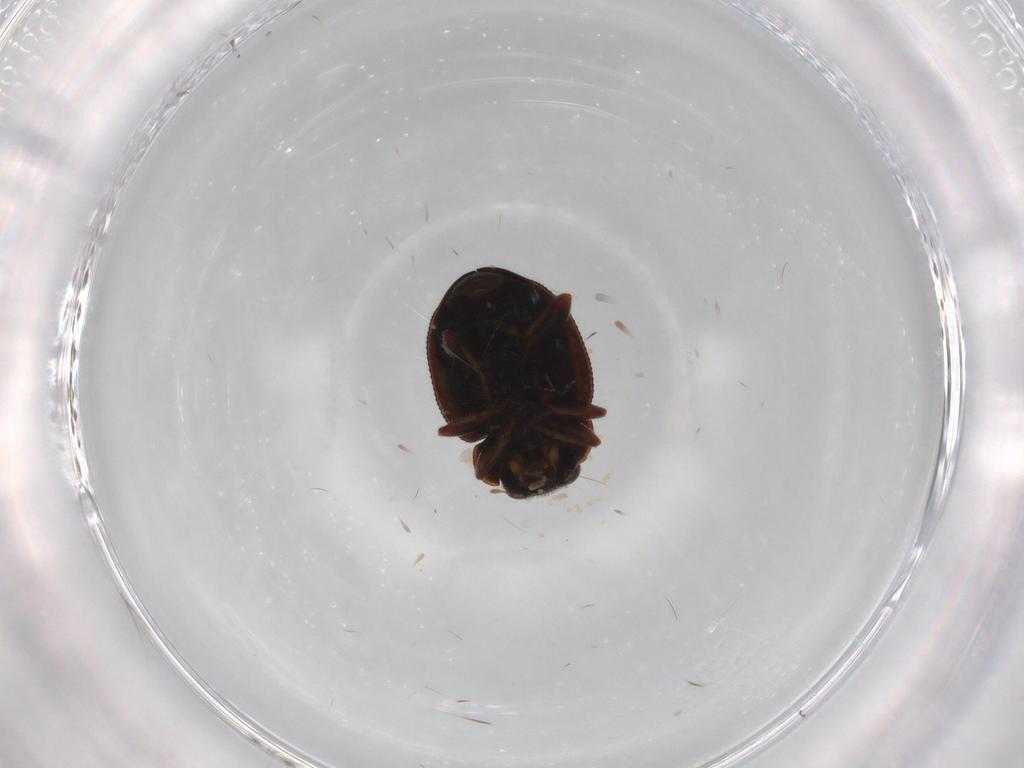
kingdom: Animalia
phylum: Arthropoda
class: Insecta
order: Coleoptera
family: Coccinellidae
